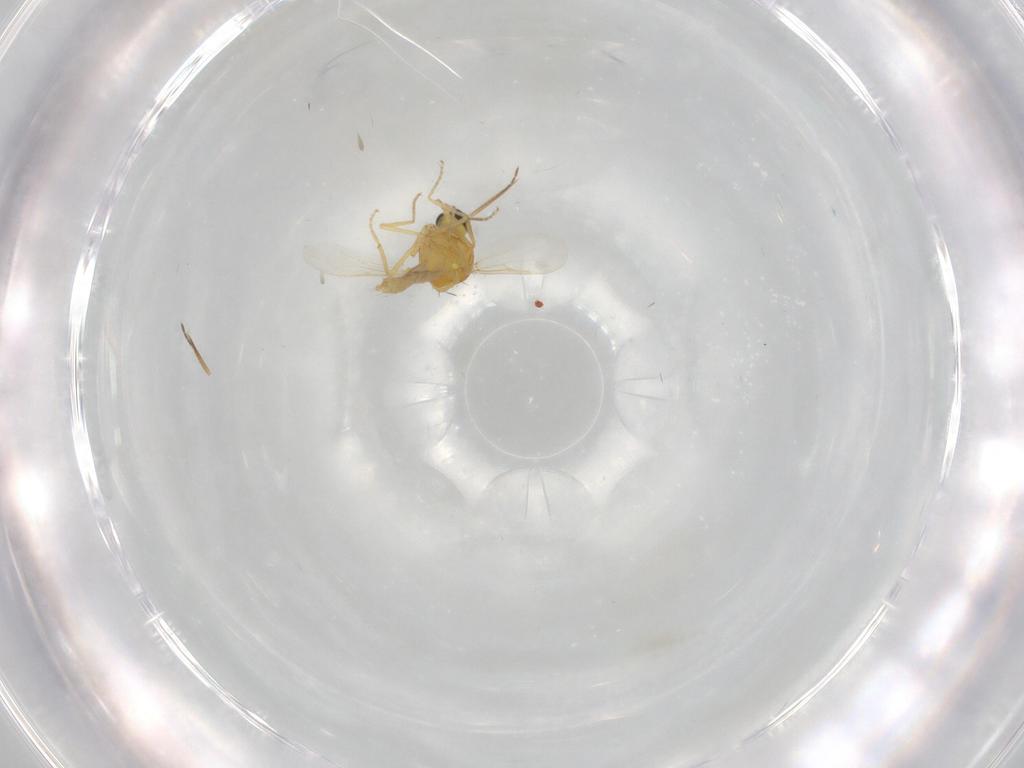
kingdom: Animalia
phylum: Arthropoda
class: Insecta
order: Diptera
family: Ceratopogonidae
